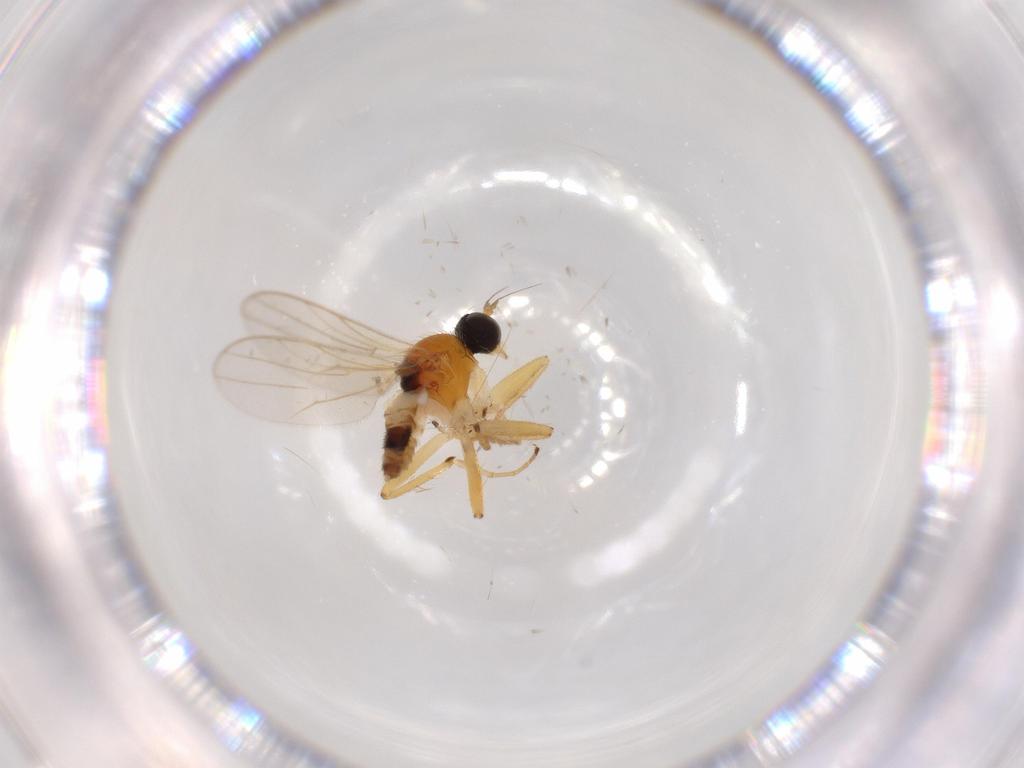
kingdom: Animalia
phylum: Arthropoda
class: Insecta
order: Diptera
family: Hybotidae
